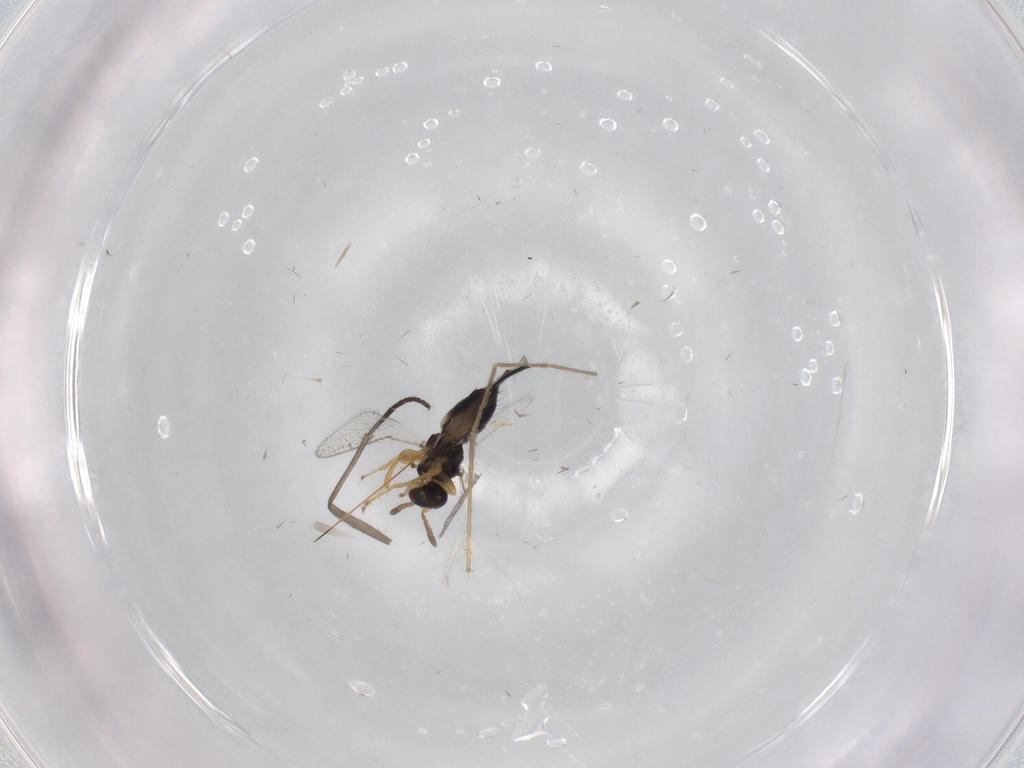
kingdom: Animalia
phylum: Arthropoda
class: Insecta
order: Hymenoptera
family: Torymidae
